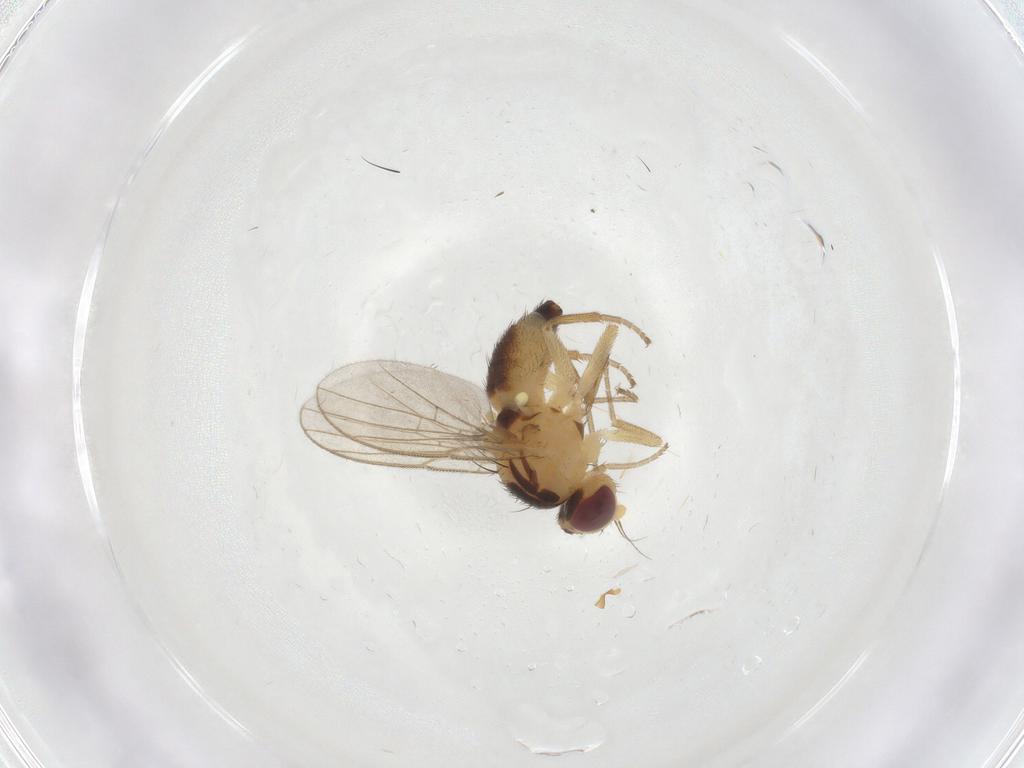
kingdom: Animalia
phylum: Arthropoda
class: Insecta
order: Diptera
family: Agromyzidae
